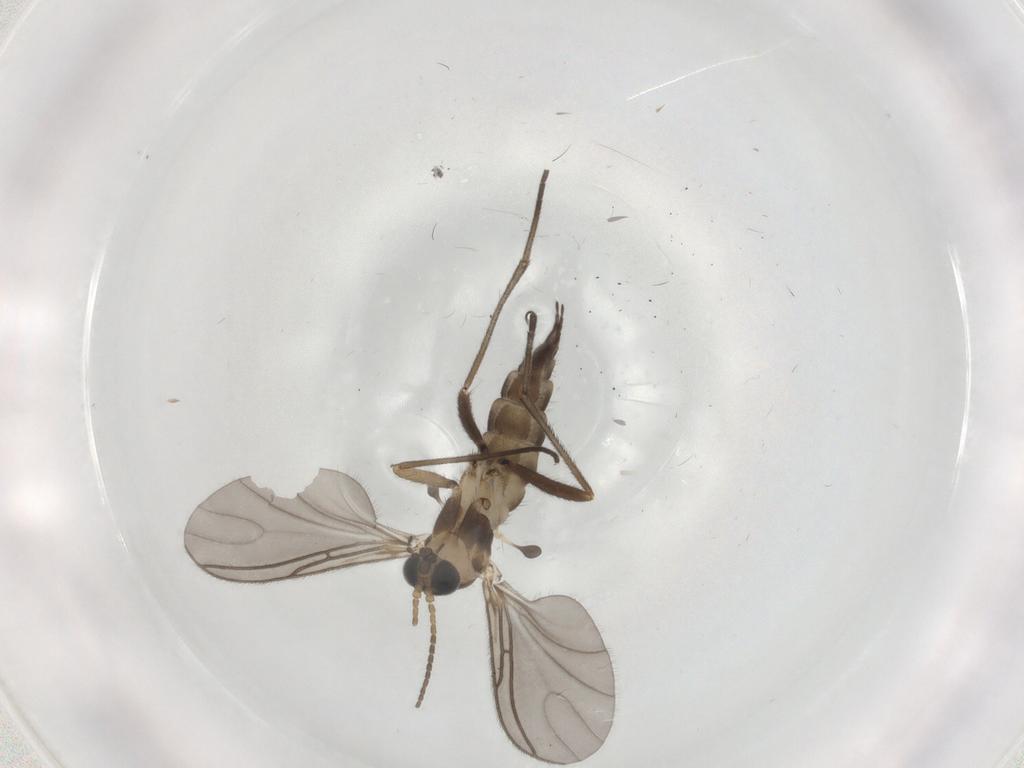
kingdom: Animalia
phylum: Arthropoda
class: Insecta
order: Diptera
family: Sciaridae
